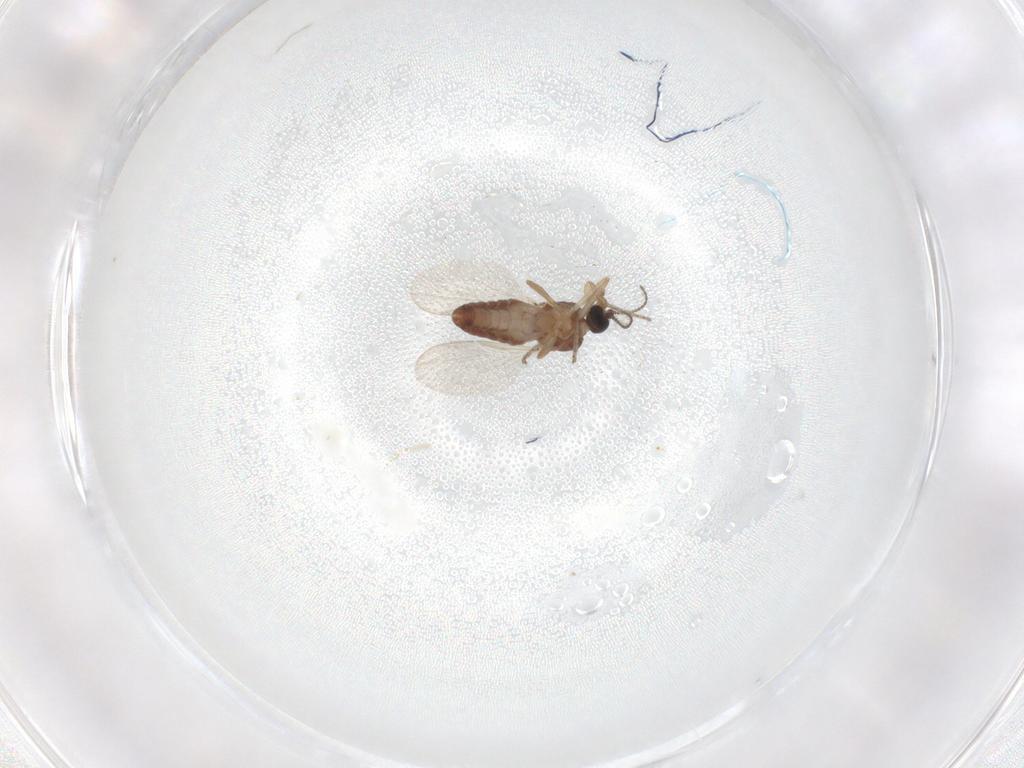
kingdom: Animalia
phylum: Arthropoda
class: Insecta
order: Diptera
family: Ceratopogonidae
